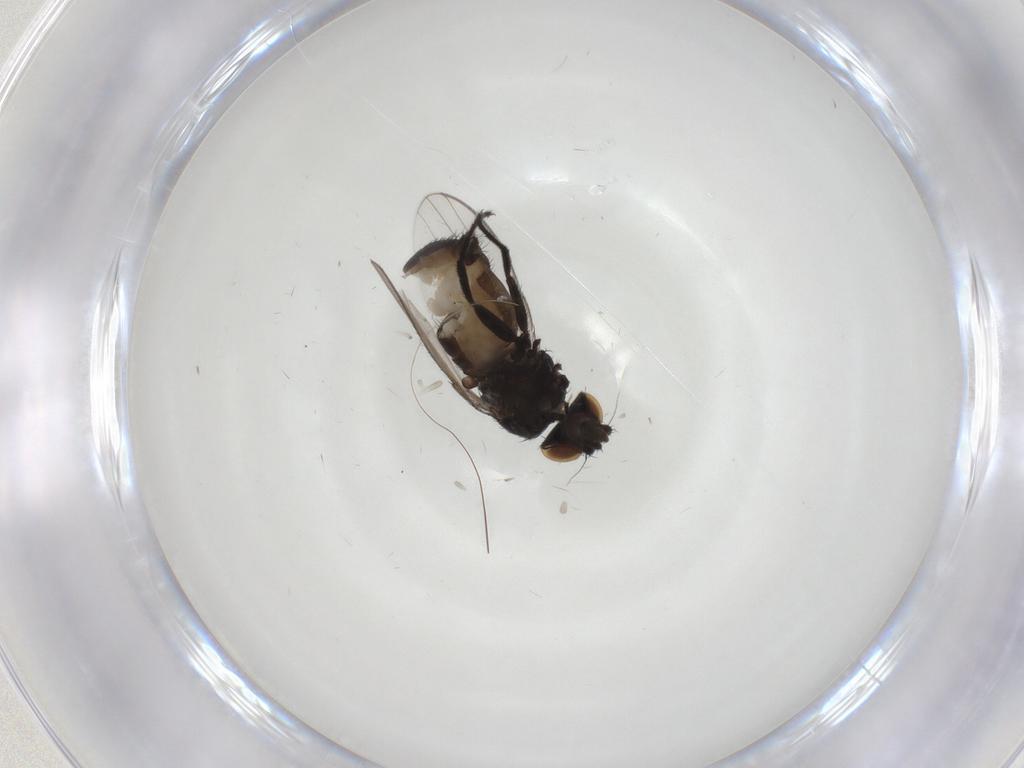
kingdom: Animalia
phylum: Arthropoda
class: Insecta
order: Diptera
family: Milichiidae
